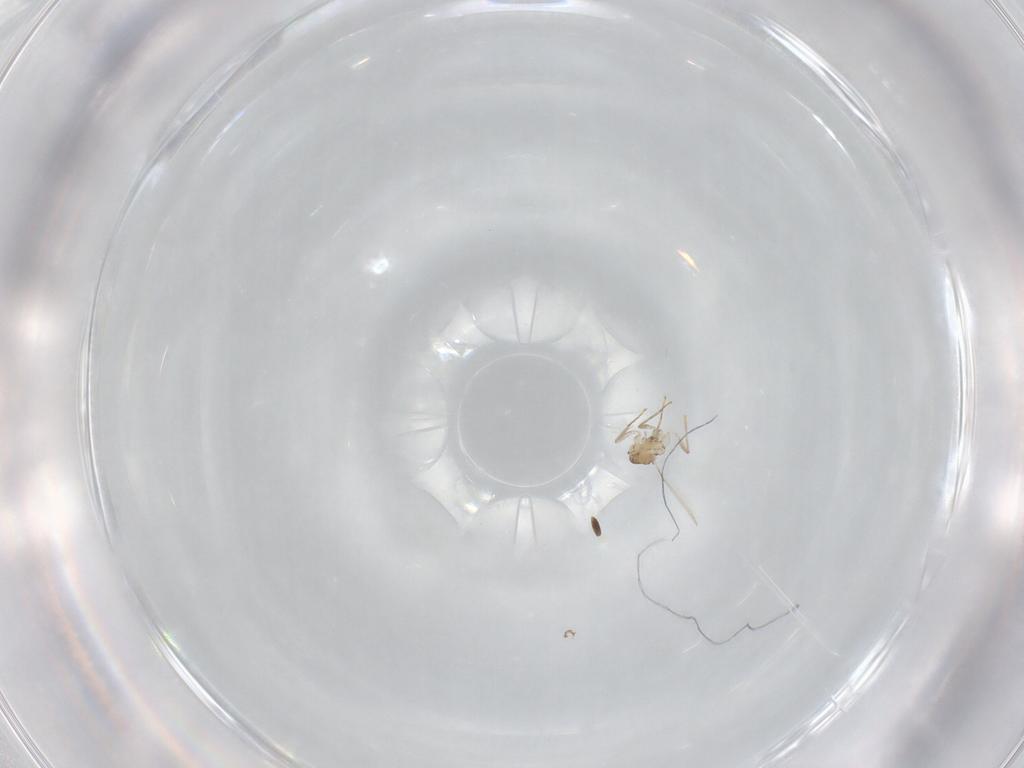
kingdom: Animalia
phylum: Arthropoda
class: Insecta
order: Hymenoptera
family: Mymaridae
